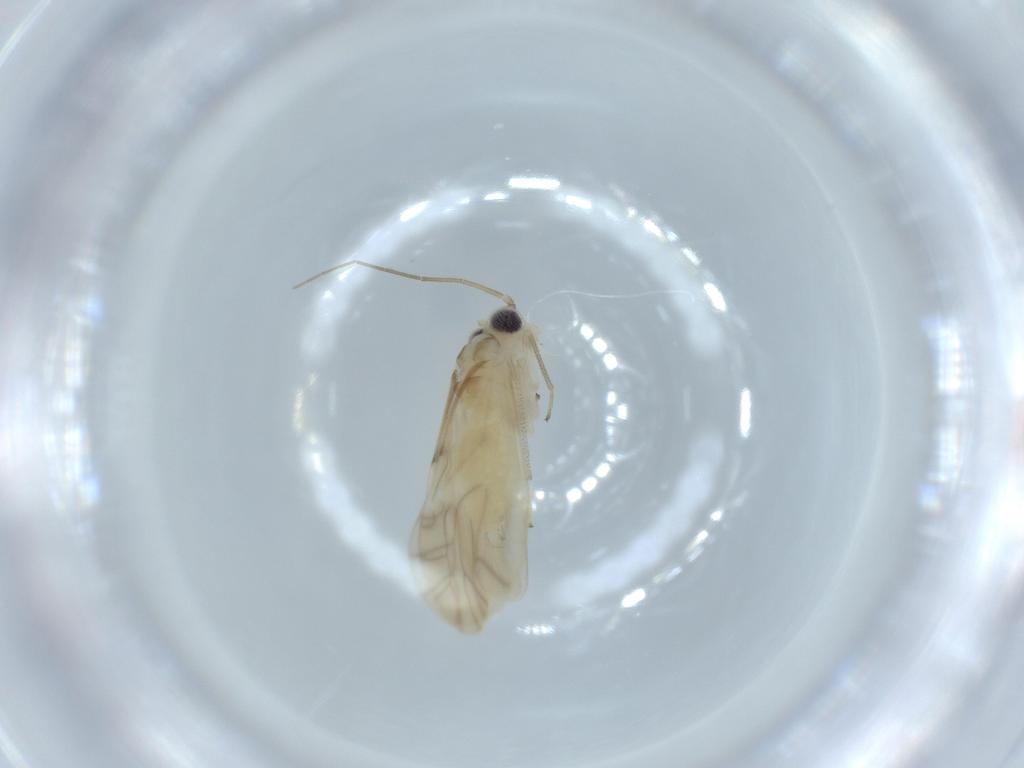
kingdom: Animalia
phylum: Arthropoda
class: Insecta
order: Psocodea
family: Caeciliusidae
